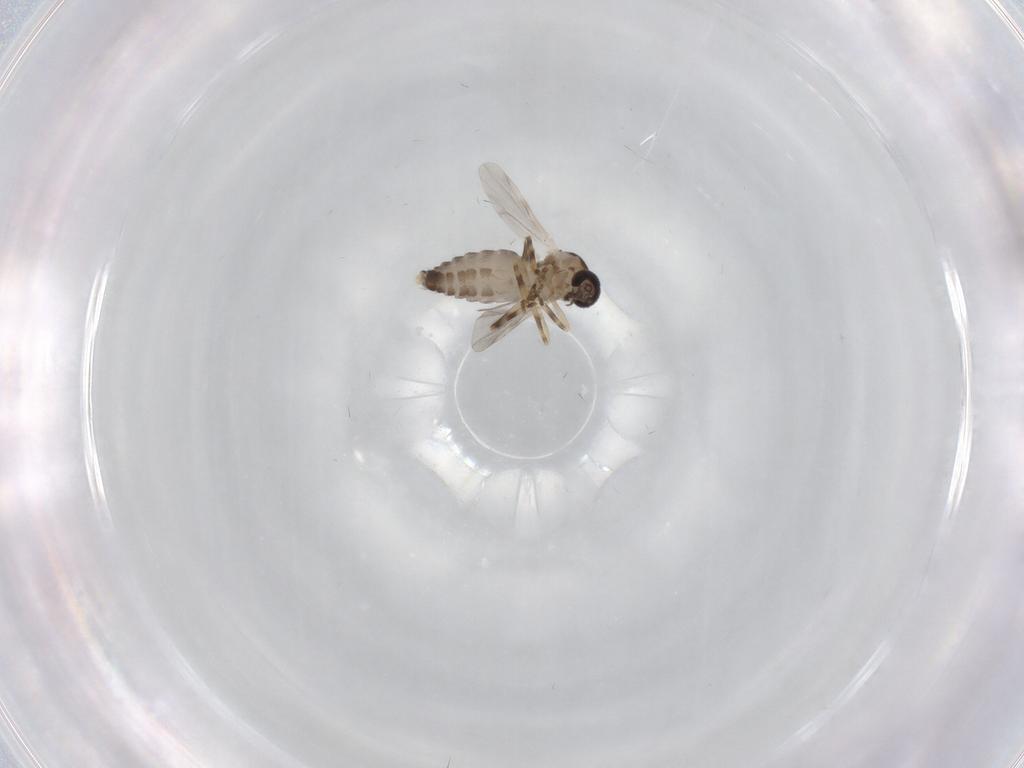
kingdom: Animalia
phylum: Arthropoda
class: Insecta
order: Diptera
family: Ceratopogonidae
